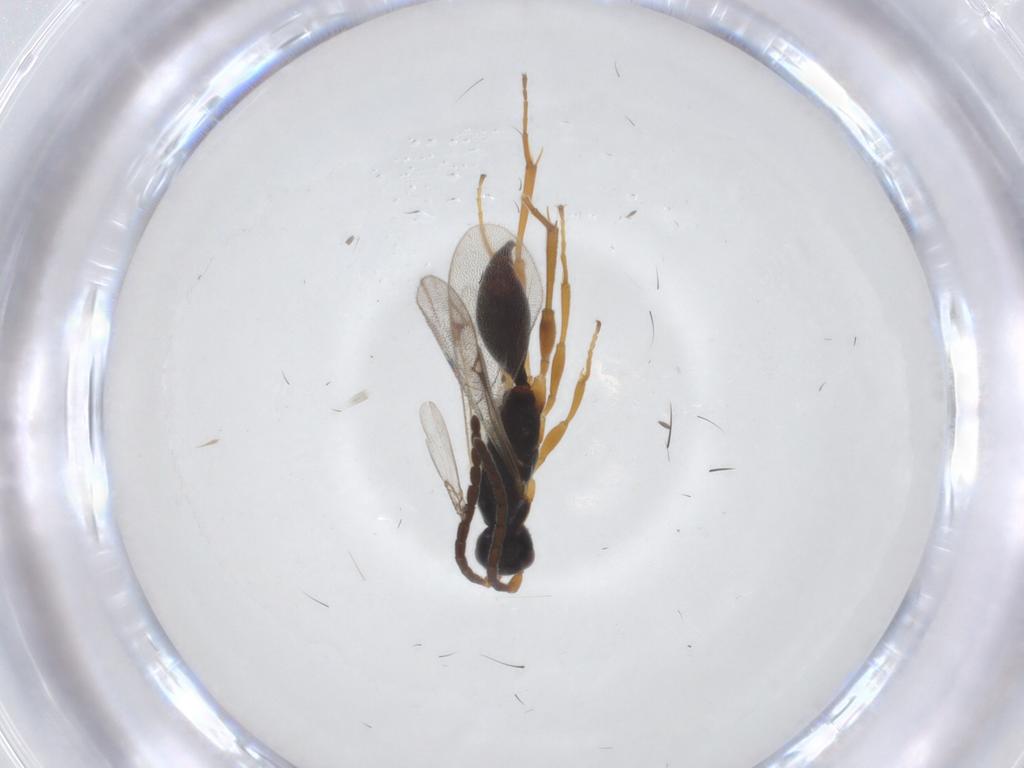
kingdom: Animalia
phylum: Arthropoda
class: Insecta
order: Hymenoptera
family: Proctotrupidae
